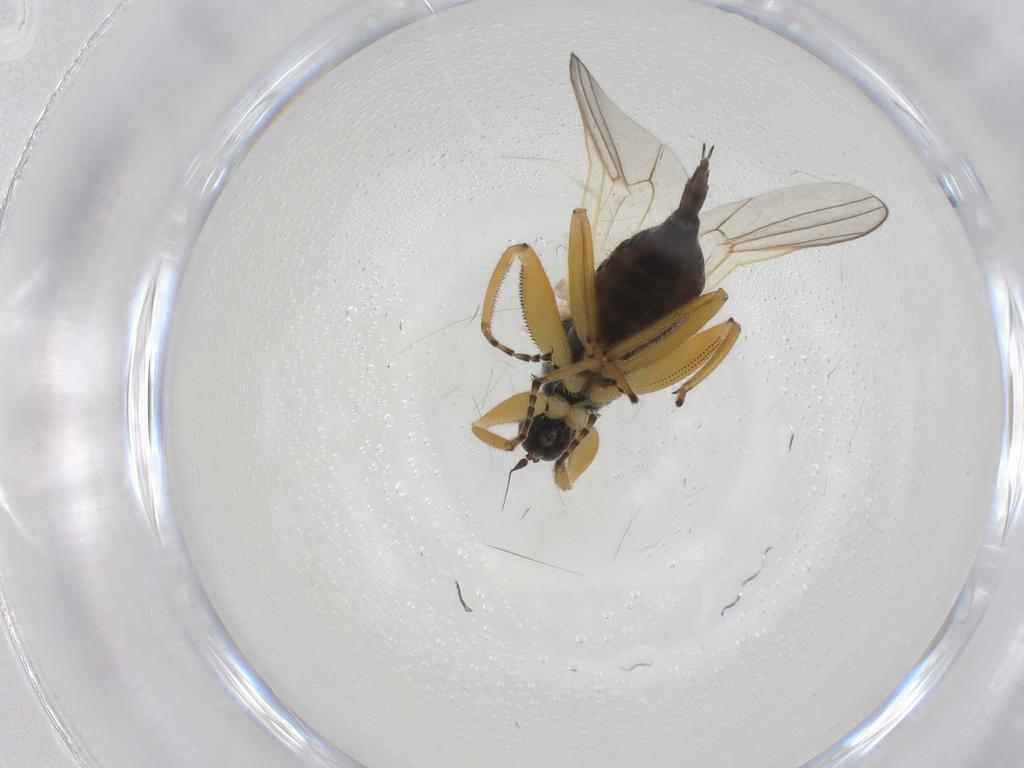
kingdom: Animalia
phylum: Arthropoda
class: Insecta
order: Diptera
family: Hybotidae
